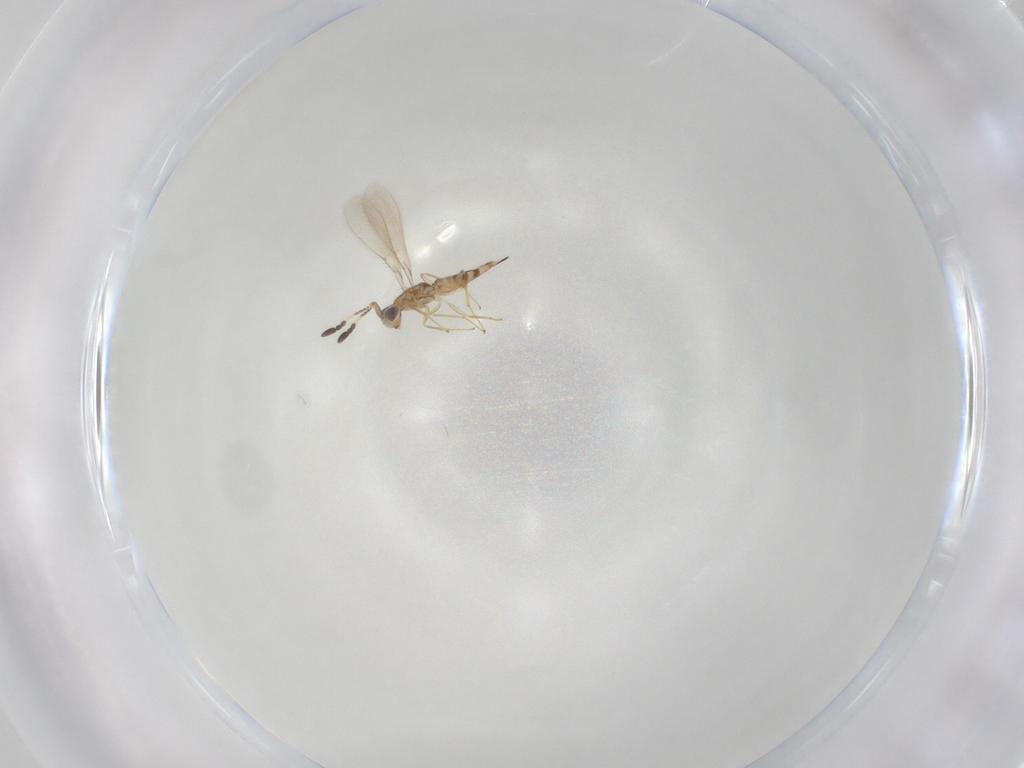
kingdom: Animalia
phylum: Arthropoda
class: Insecta
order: Hymenoptera
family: Mymaridae
